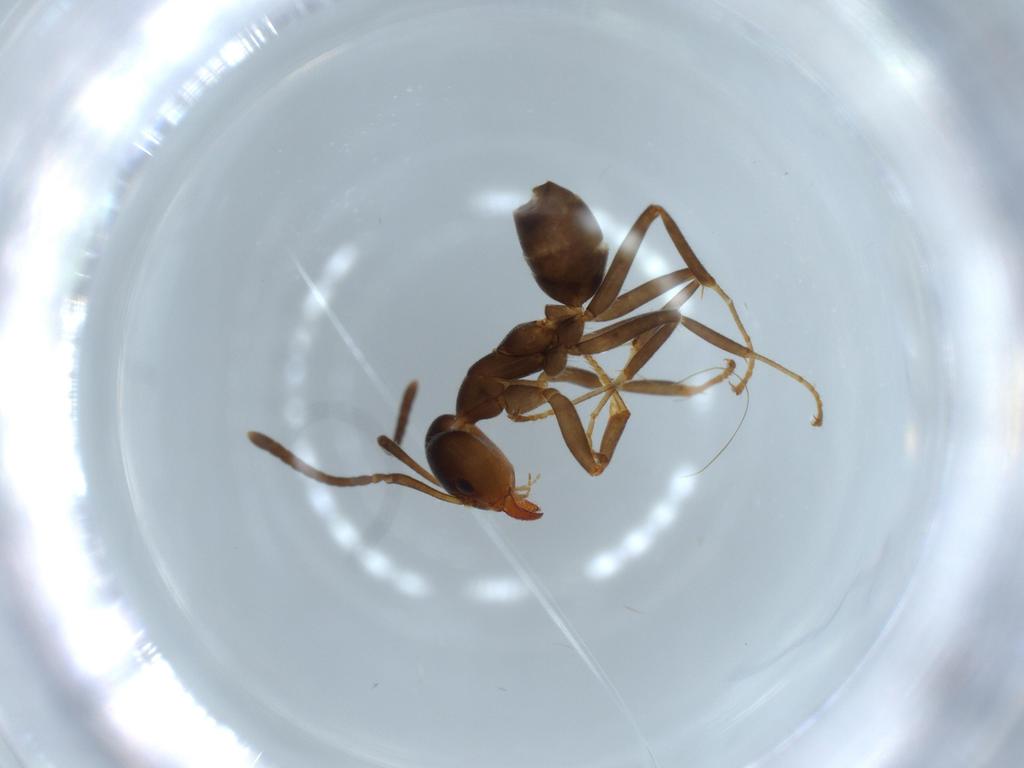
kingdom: Animalia
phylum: Arthropoda
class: Insecta
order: Hymenoptera
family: Formicidae
